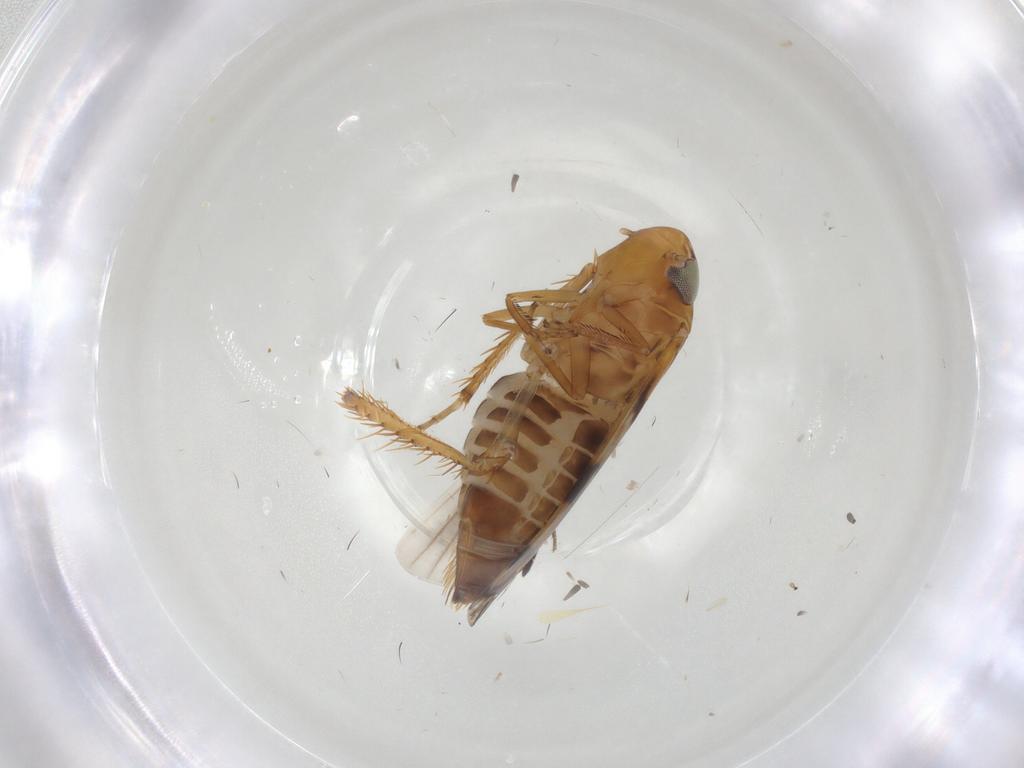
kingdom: Animalia
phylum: Arthropoda
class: Insecta
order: Hemiptera
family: Cicadellidae
